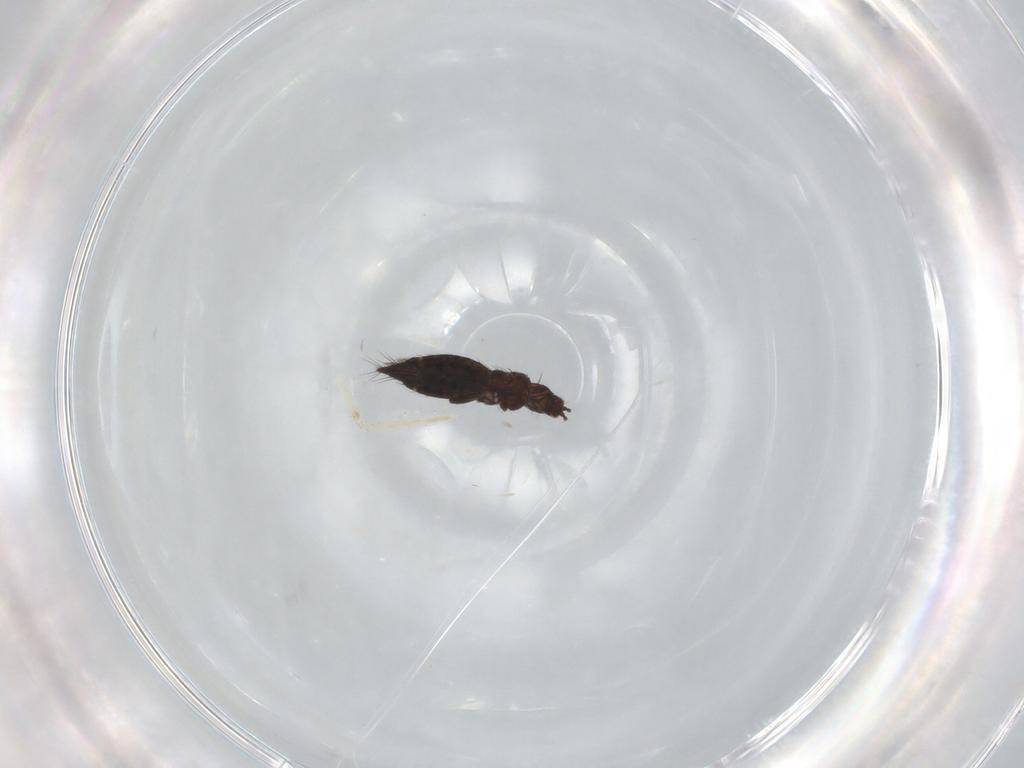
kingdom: Animalia
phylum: Arthropoda
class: Insecta
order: Thysanoptera
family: Thripidae
